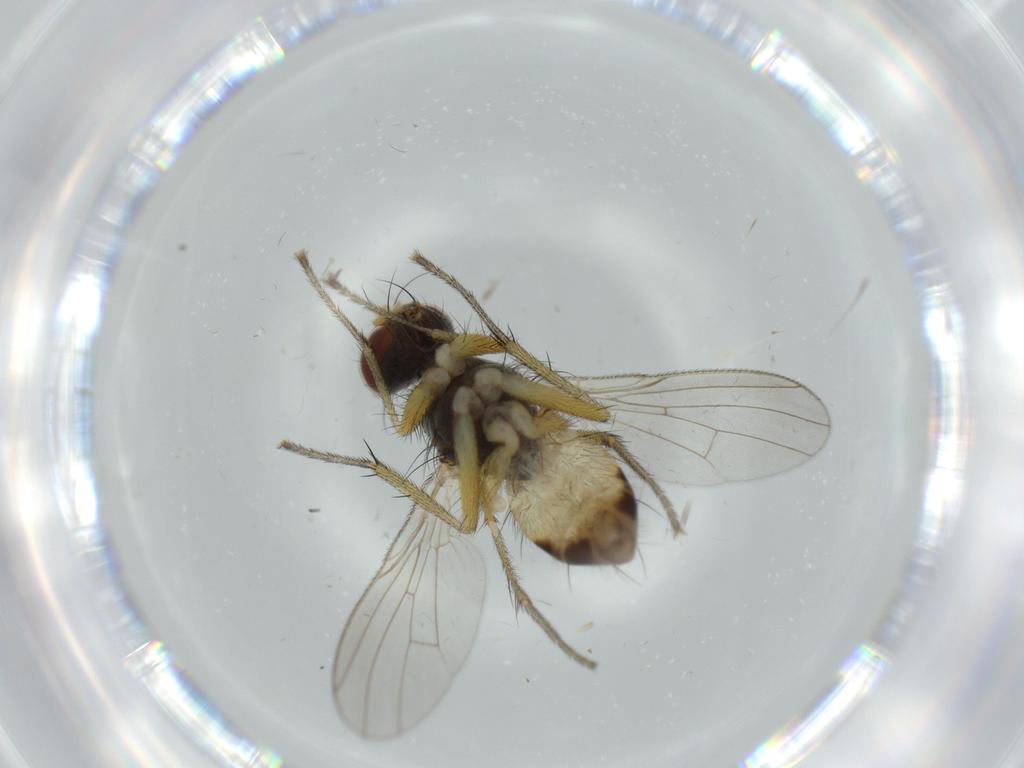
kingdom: Animalia
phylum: Arthropoda
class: Insecta
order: Diptera
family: Muscidae
